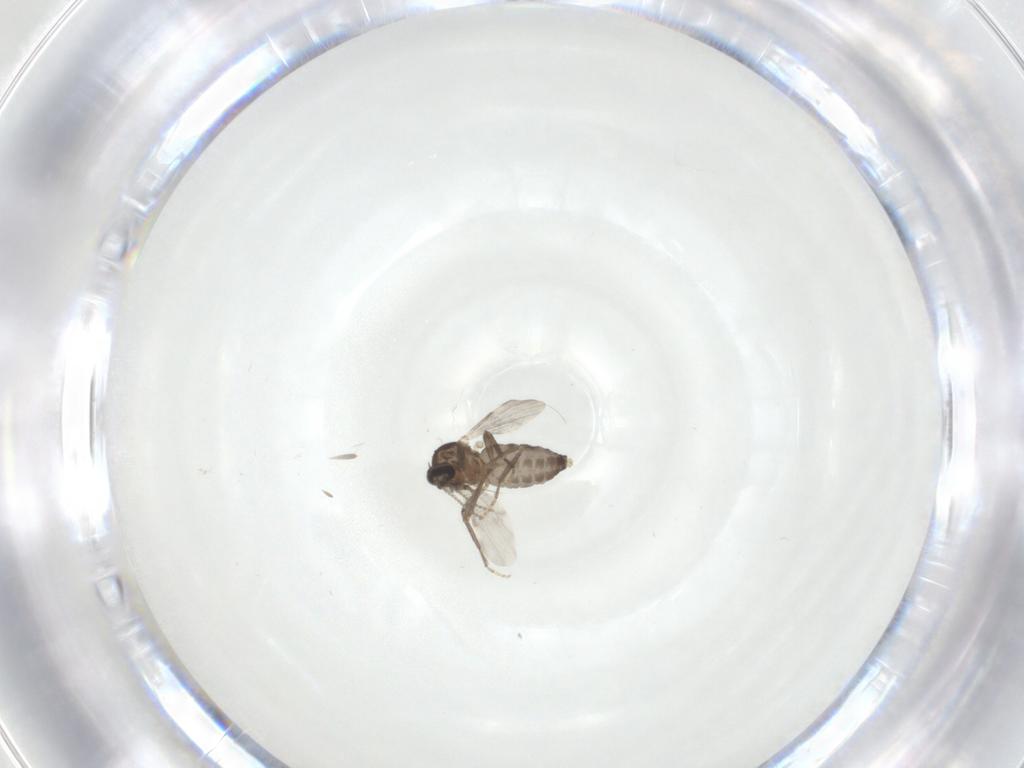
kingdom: Animalia
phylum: Arthropoda
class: Insecta
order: Diptera
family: Ceratopogonidae
